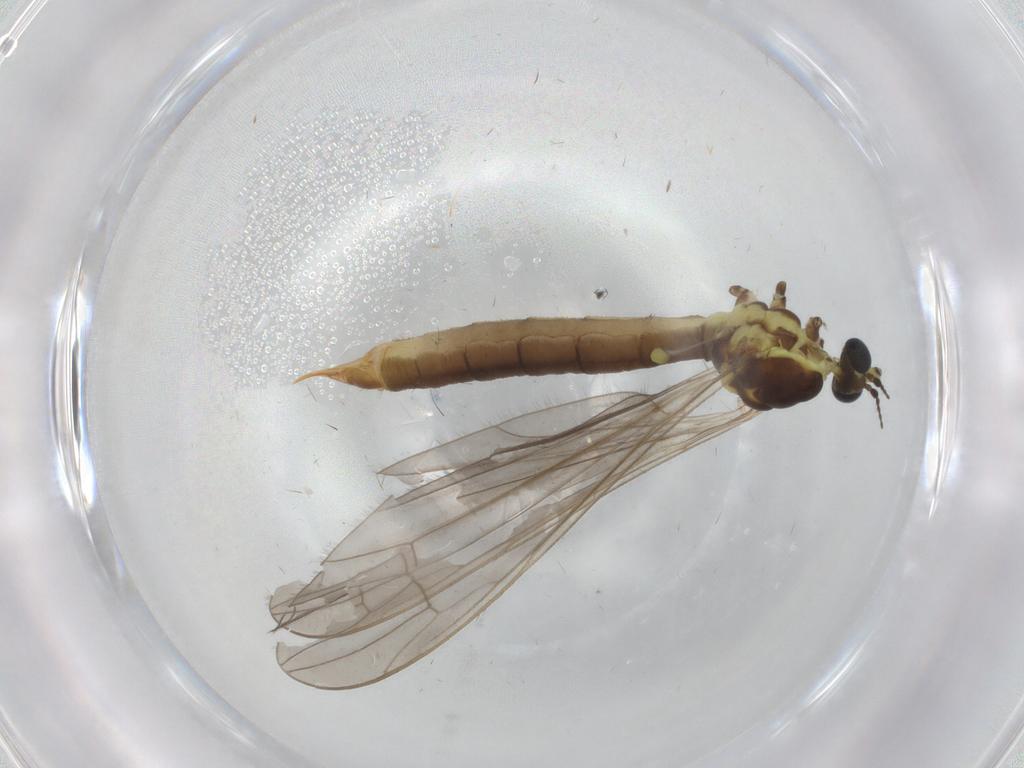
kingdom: Animalia
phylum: Arthropoda
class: Insecta
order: Diptera
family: Limoniidae
